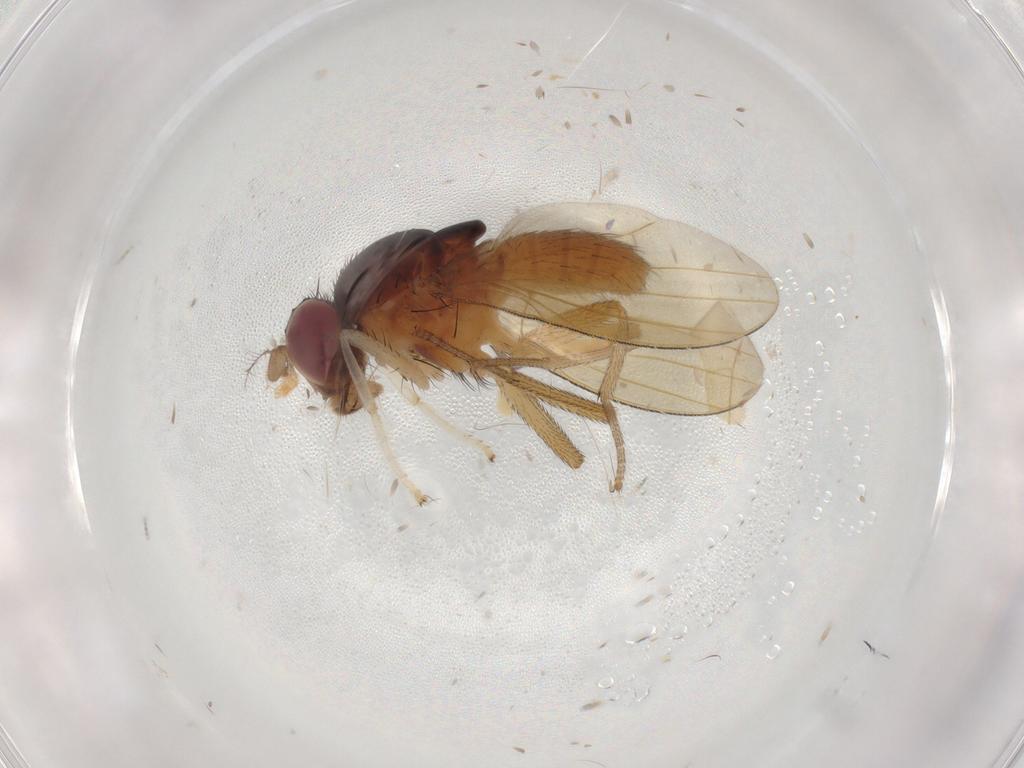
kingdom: Animalia
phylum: Arthropoda
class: Insecta
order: Diptera
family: Lauxaniidae
